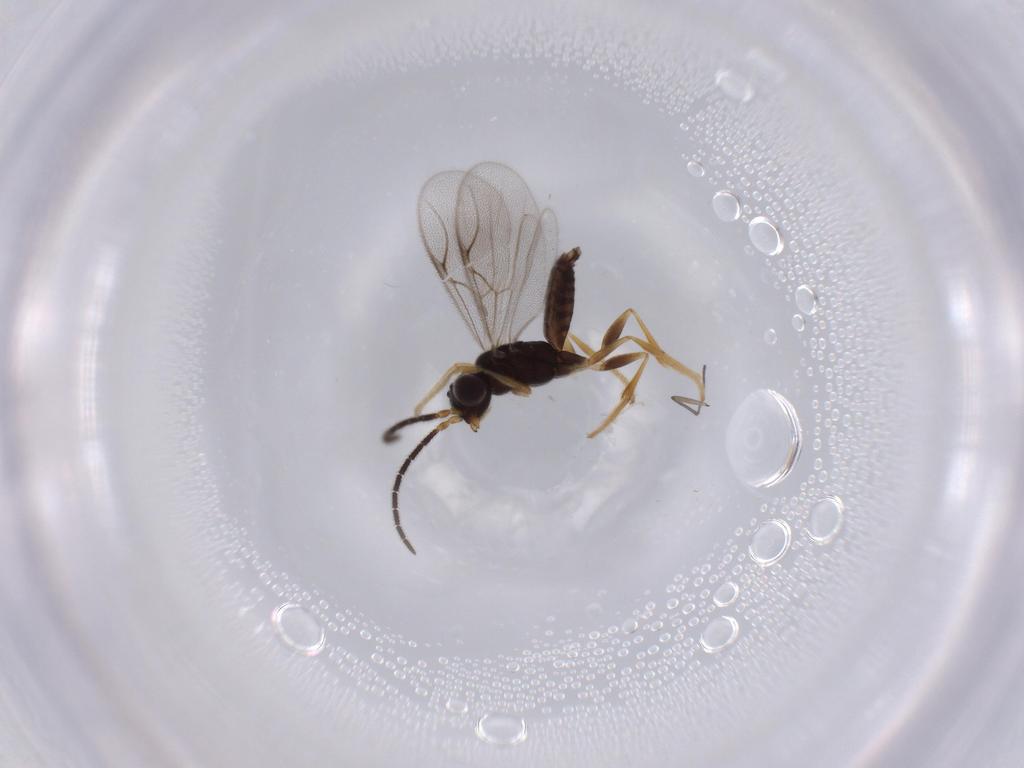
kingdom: Animalia
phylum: Arthropoda
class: Insecta
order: Hymenoptera
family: Dryinidae
